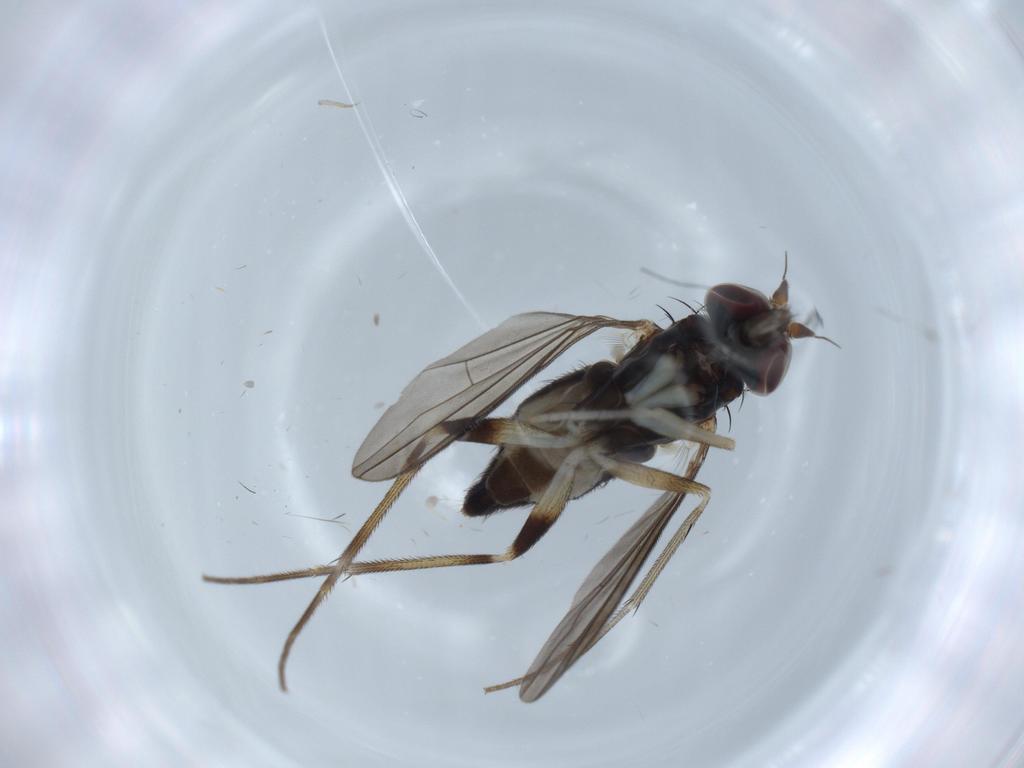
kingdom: Animalia
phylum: Arthropoda
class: Insecta
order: Diptera
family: Dolichopodidae
